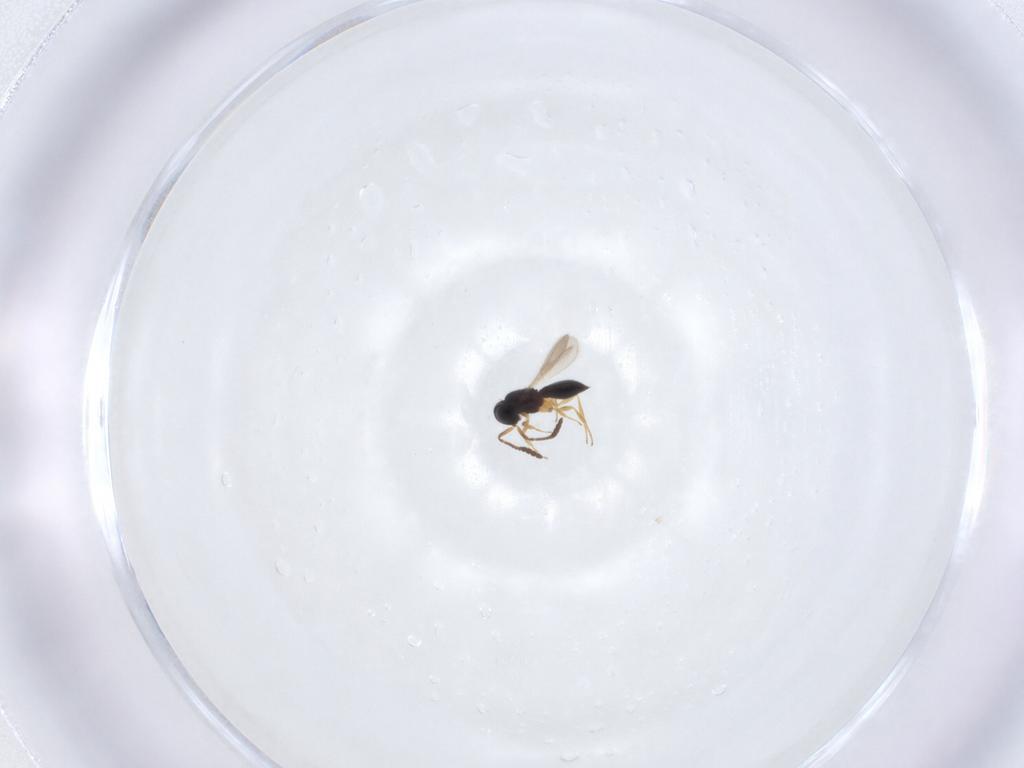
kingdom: Animalia
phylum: Arthropoda
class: Insecta
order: Hymenoptera
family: Scelionidae
